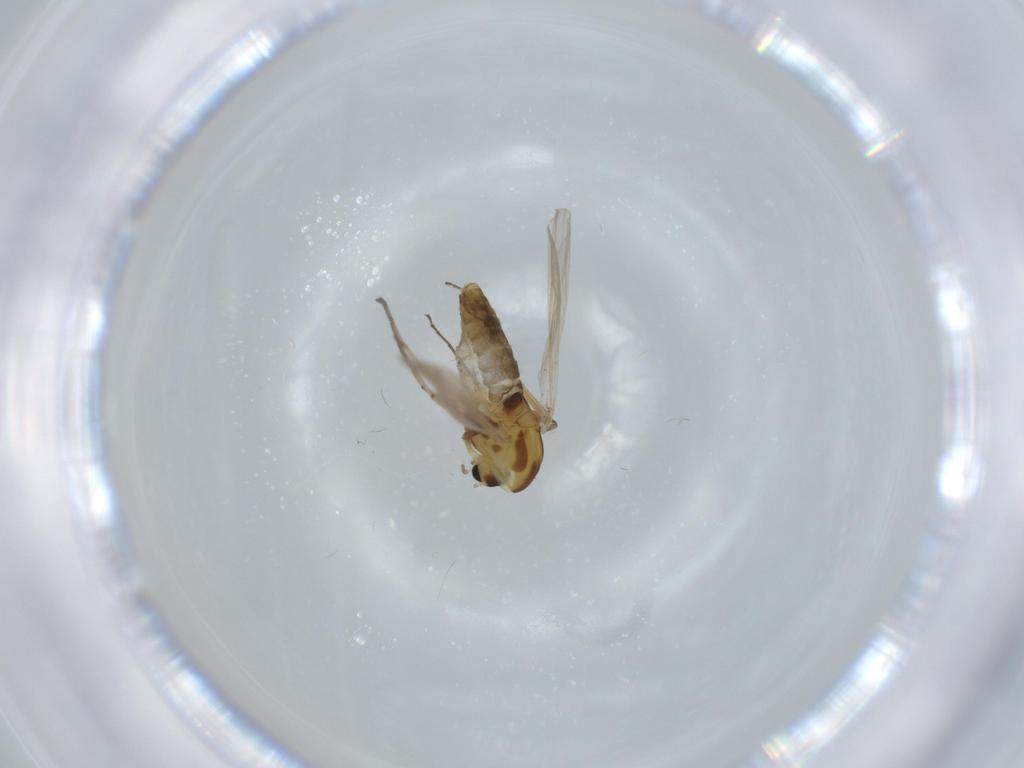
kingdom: Animalia
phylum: Arthropoda
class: Insecta
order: Diptera
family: Chironomidae
